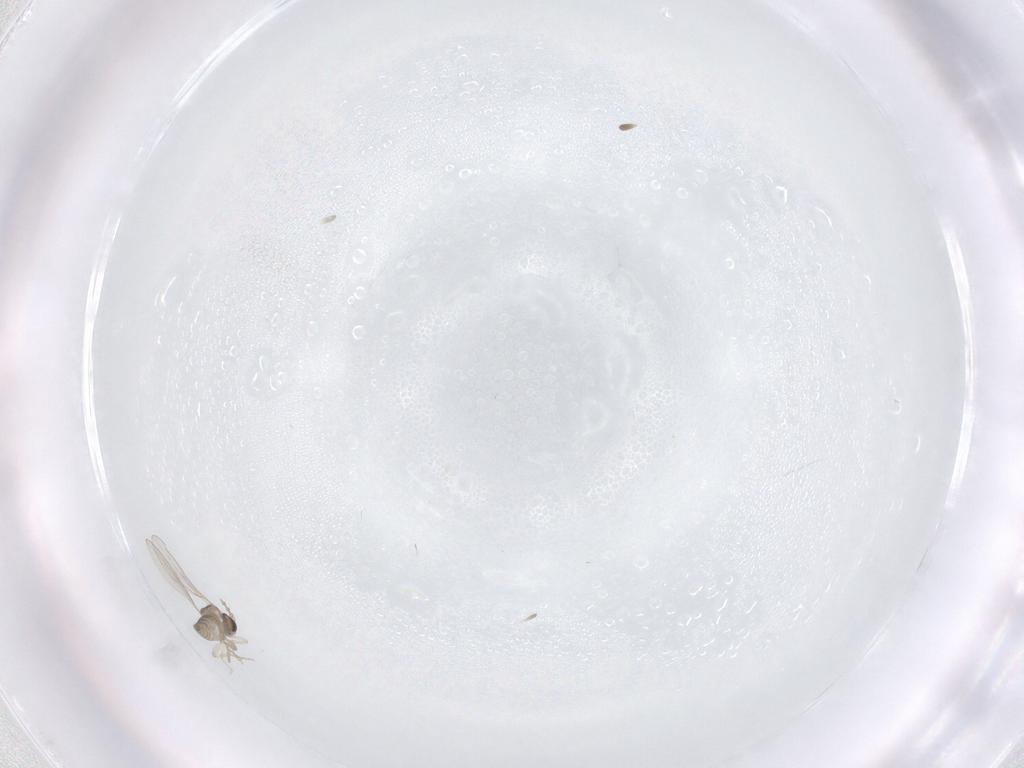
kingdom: Animalia
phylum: Arthropoda
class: Insecta
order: Diptera
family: Cecidomyiidae
